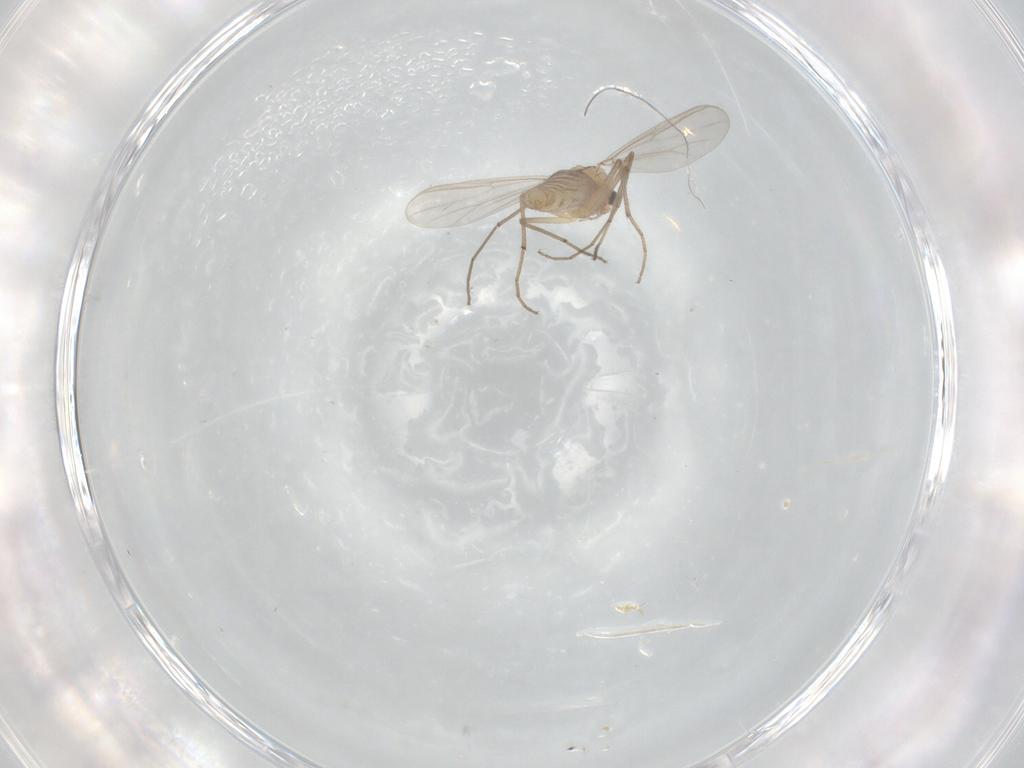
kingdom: Animalia
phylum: Arthropoda
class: Insecta
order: Diptera
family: Chironomidae
